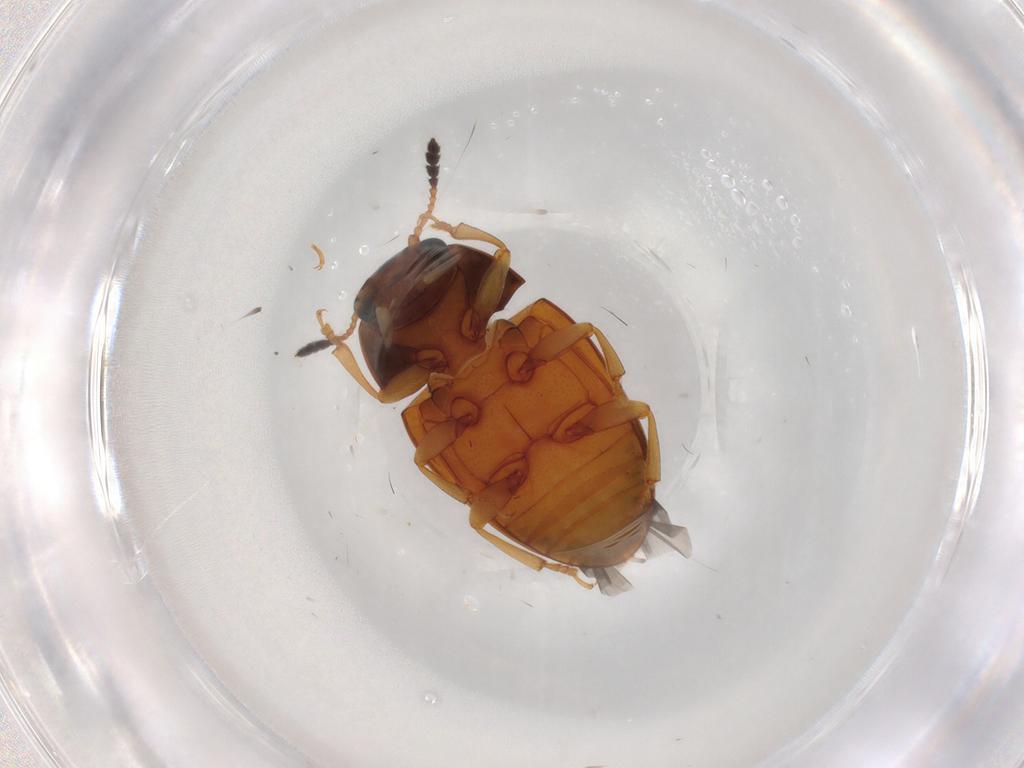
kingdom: Animalia
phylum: Arthropoda
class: Insecta
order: Coleoptera
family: Erotylidae
